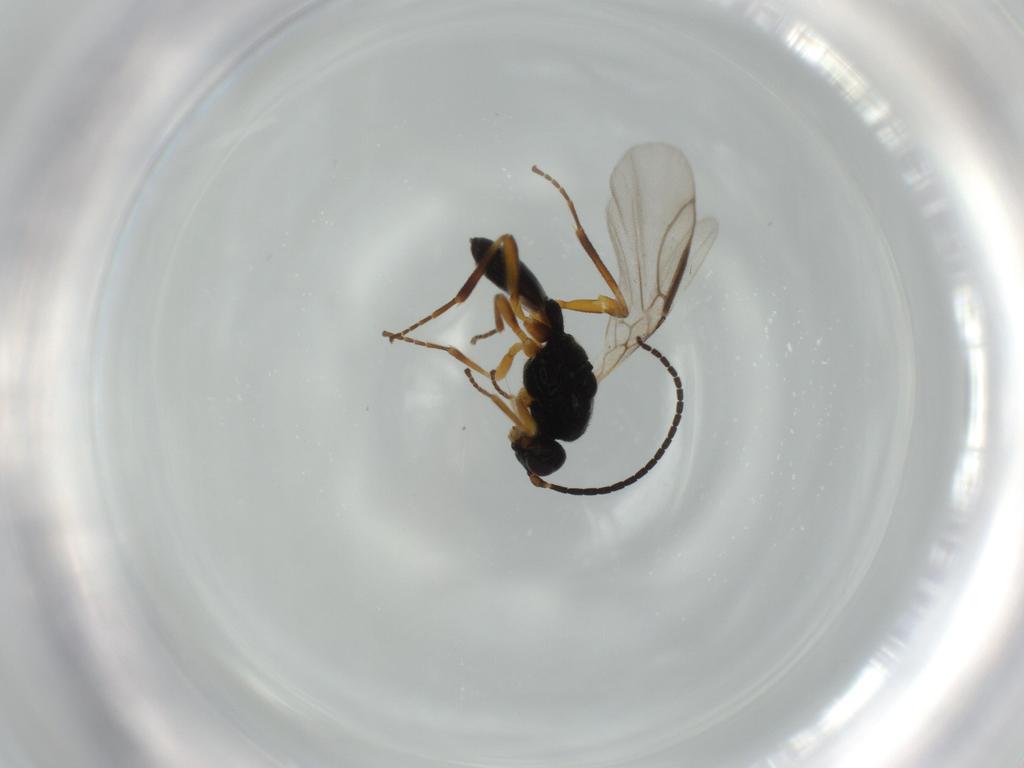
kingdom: Animalia
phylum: Arthropoda
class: Insecta
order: Hymenoptera
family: Braconidae
